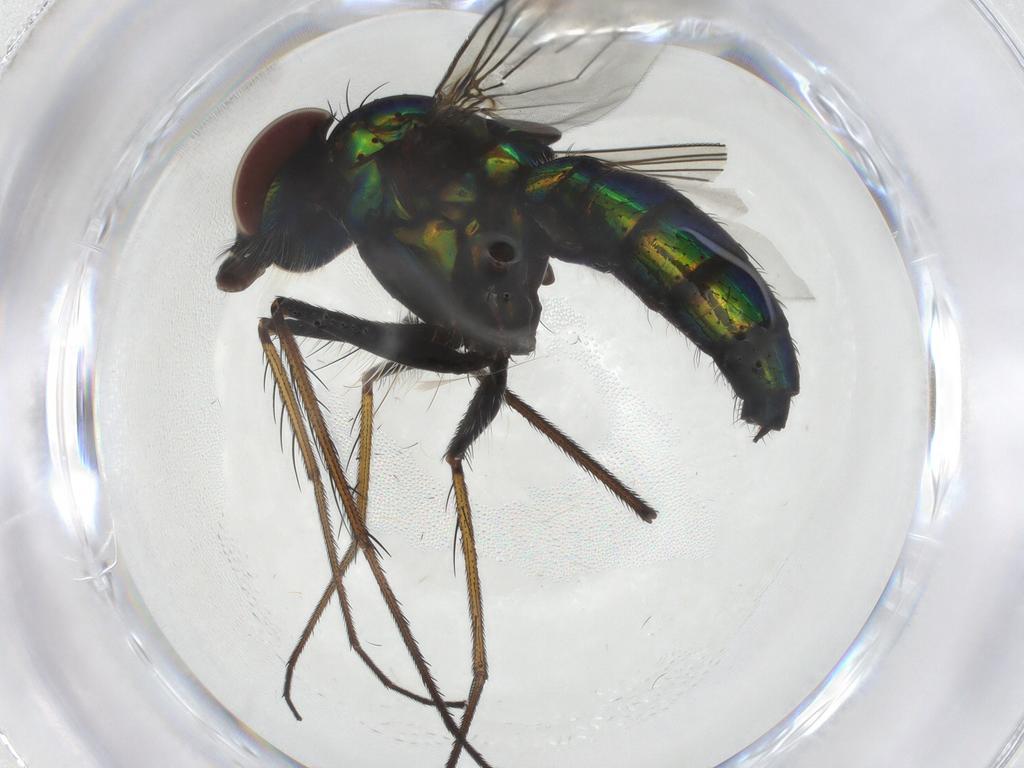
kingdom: Animalia
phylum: Arthropoda
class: Insecta
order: Diptera
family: Dolichopodidae
